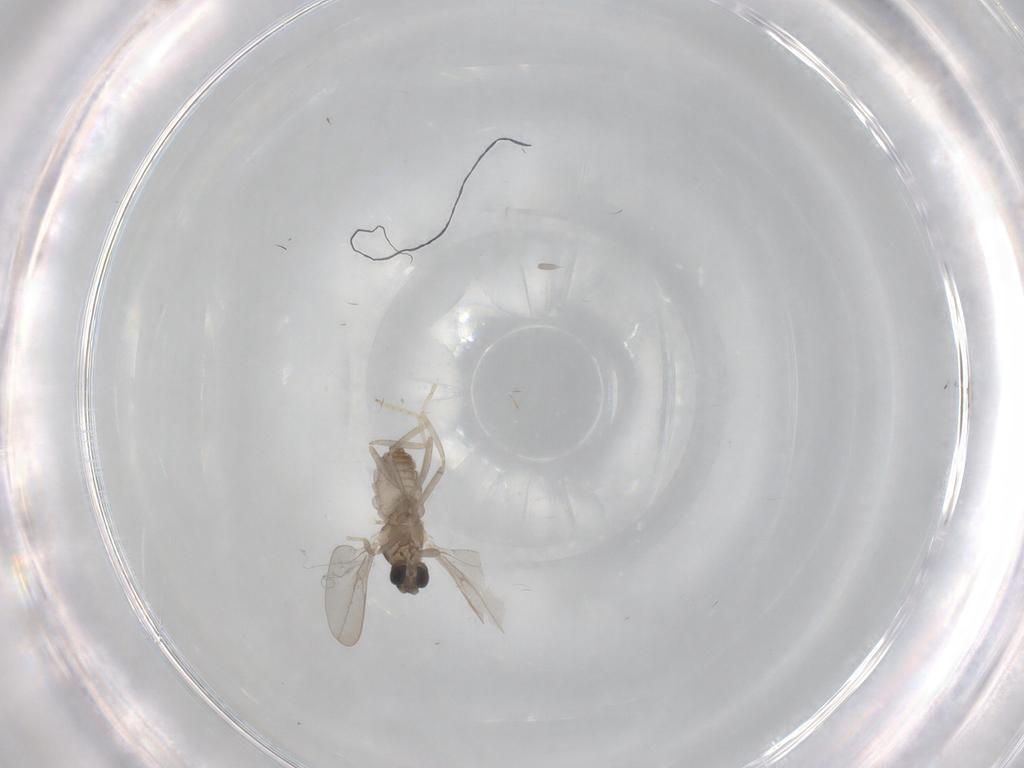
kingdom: Animalia
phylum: Arthropoda
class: Insecta
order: Diptera
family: Cecidomyiidae
